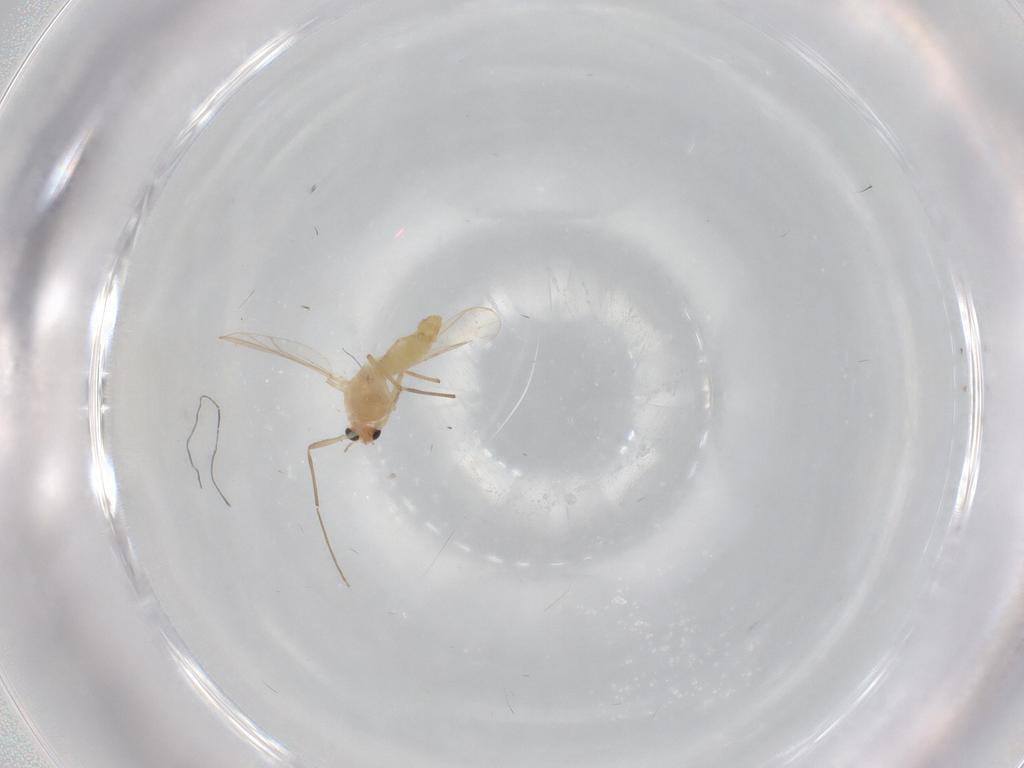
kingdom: Animalia
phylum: Arthropoda
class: Insecta
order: Diptera
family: Chironomidae
